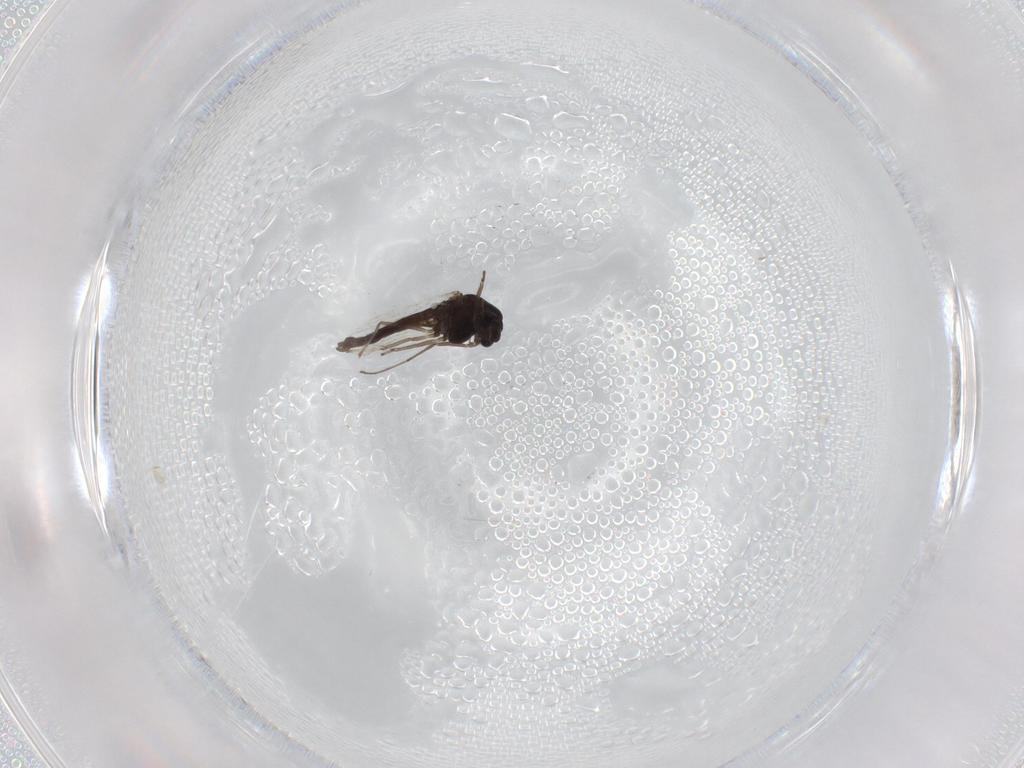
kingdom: Animalia
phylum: Arthropoda
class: Insecta
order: Diptera
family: Chironomidae
